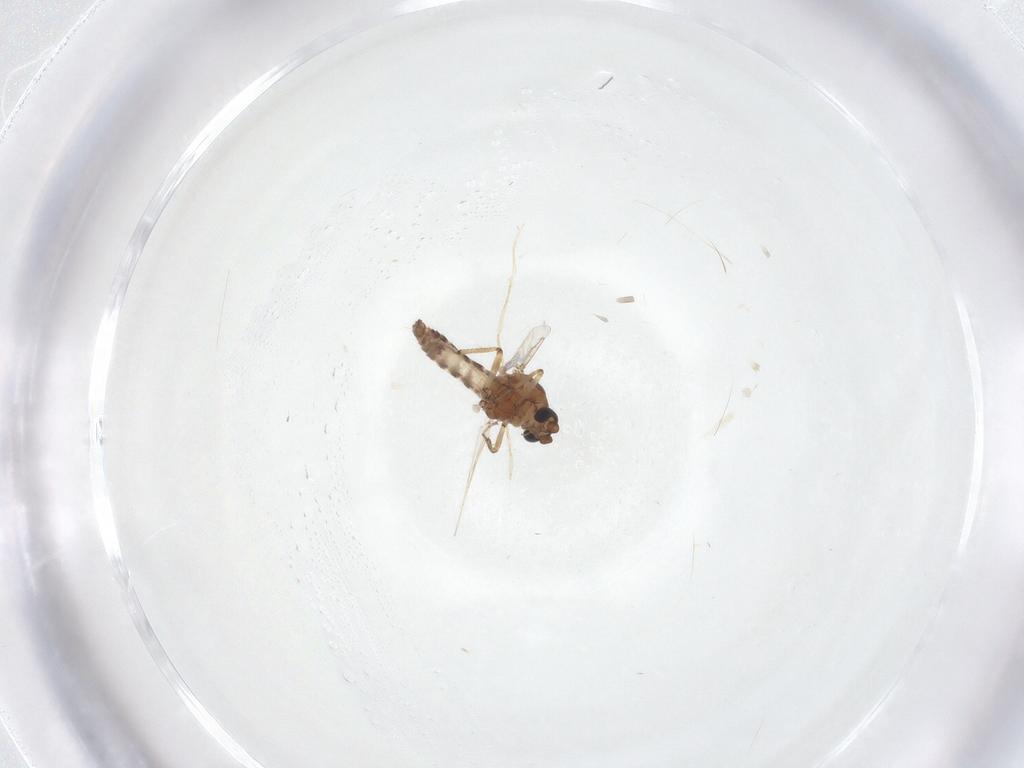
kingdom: Animalia
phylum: Arthropoda
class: Insecta
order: Diptera
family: Ceratopogonidae
